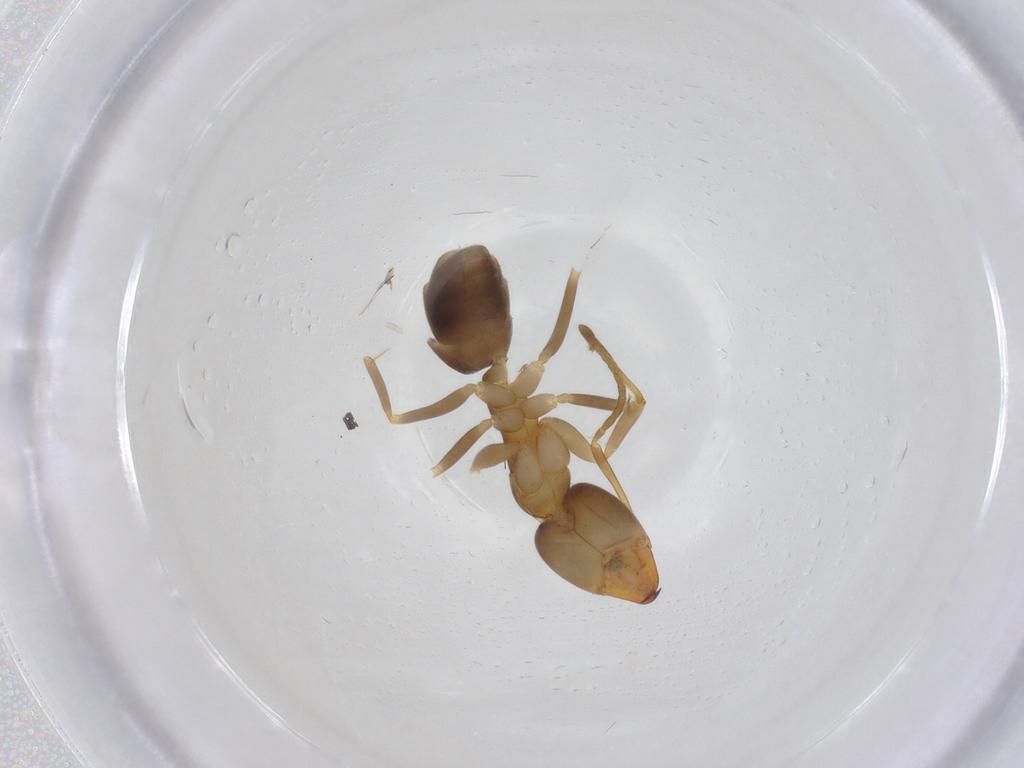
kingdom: Animalia
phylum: Arthropoda
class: Insecta
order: Hymenoptera
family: Formicidae
